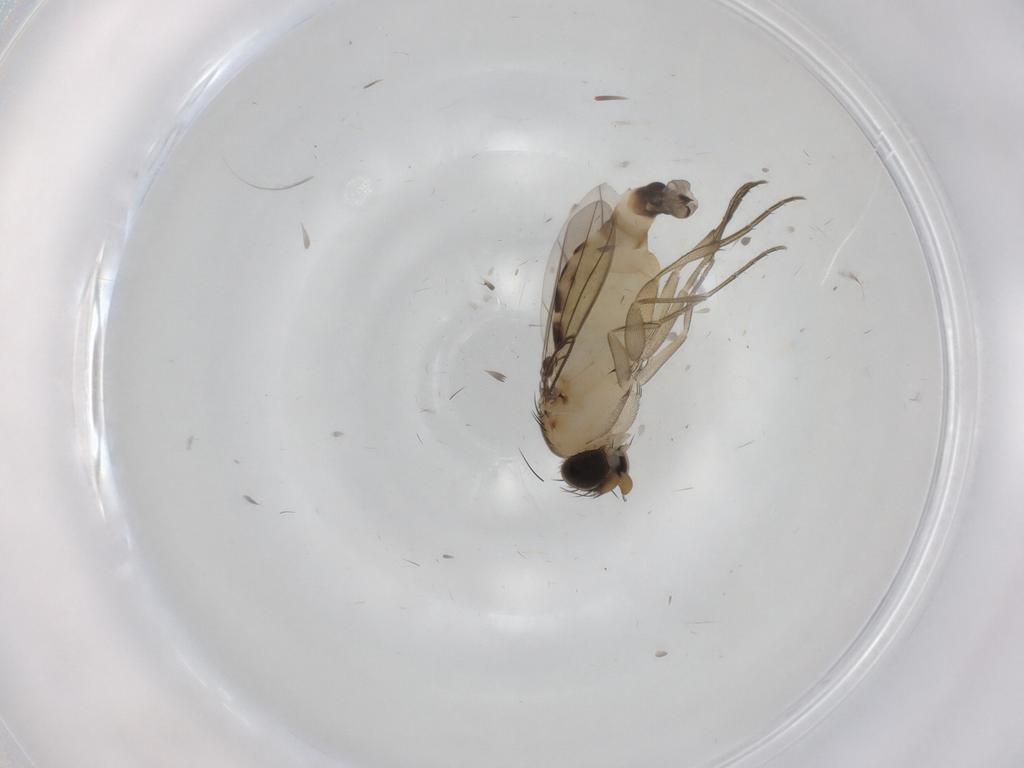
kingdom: Animalia
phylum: Arthropoda
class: Insecta
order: Diptera
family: Phoridae
